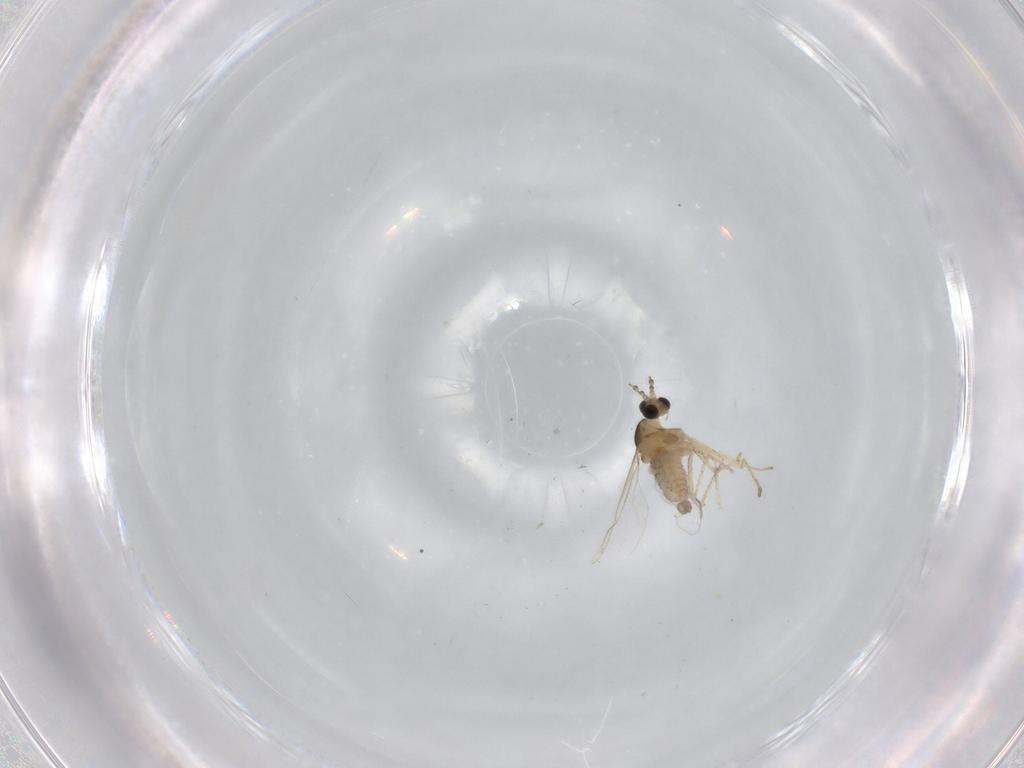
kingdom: Animalia
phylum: Arthropoda
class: Insecta
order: Diptera
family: Cecidomyiidae
